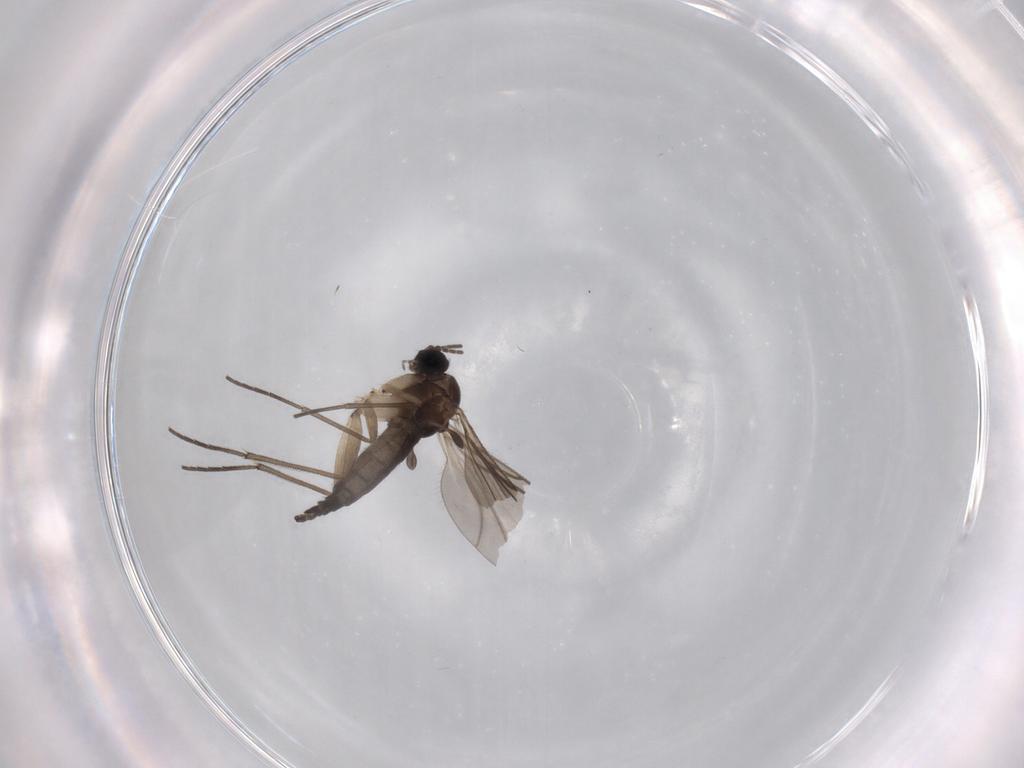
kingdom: Animalia
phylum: Arthropoda
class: Insecta
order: Diptera
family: Sciaridae
